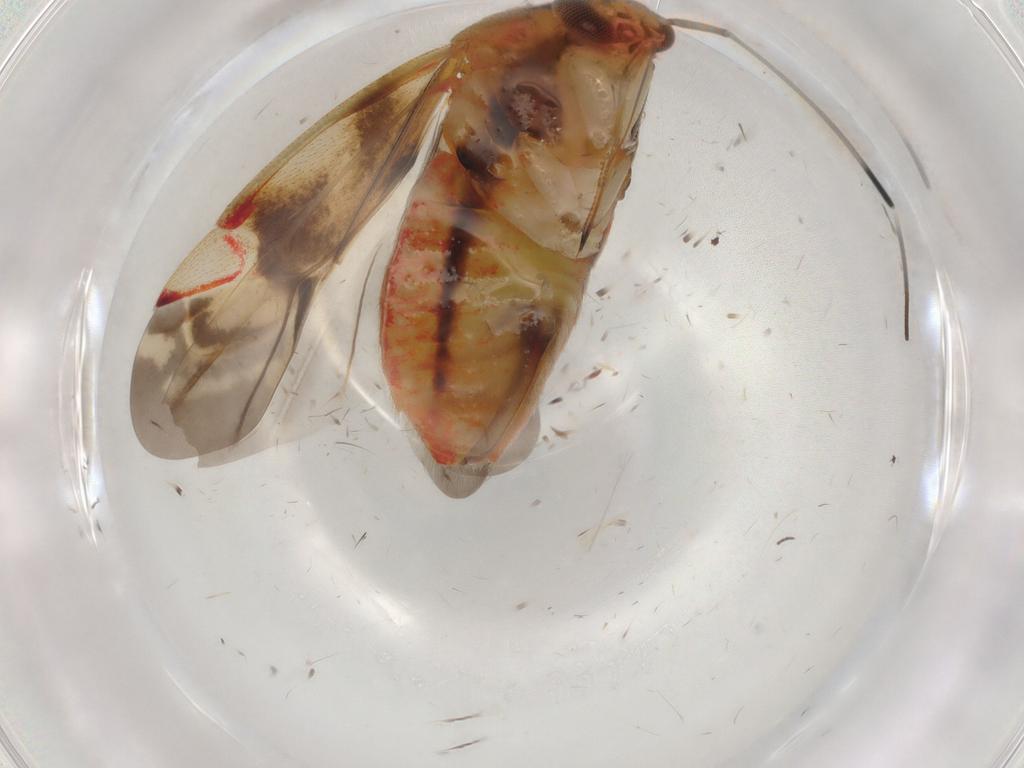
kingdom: Animalia
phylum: Arthropoda
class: Insecta
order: Hemiptera
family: Miridae
